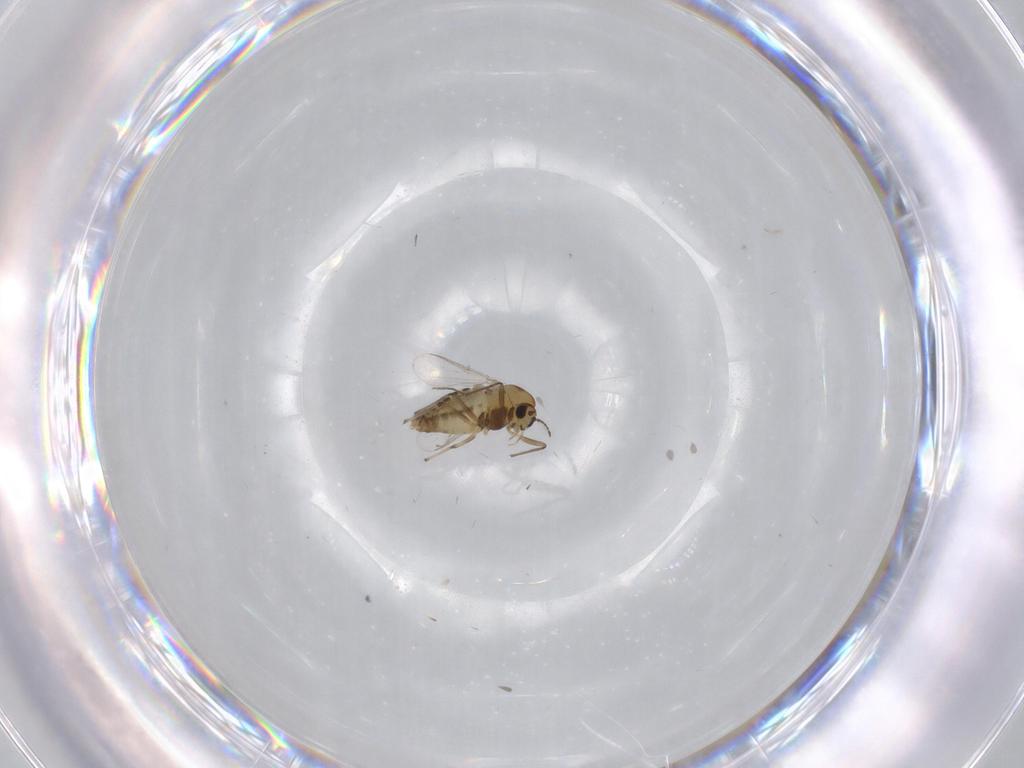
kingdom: Animalia
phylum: Arthropoda
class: Insecta
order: Diptera
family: Chironomidae
